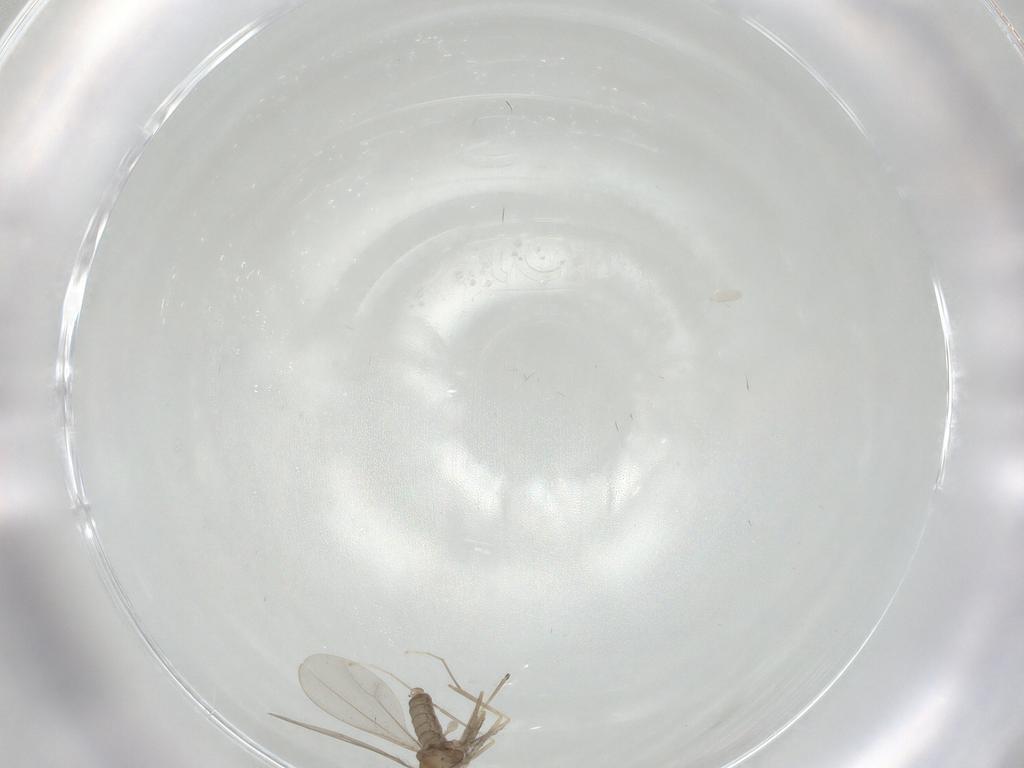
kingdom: Animalia
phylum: Arthropoda
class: Insecta
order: Diptera
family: Cecidomyiidae
